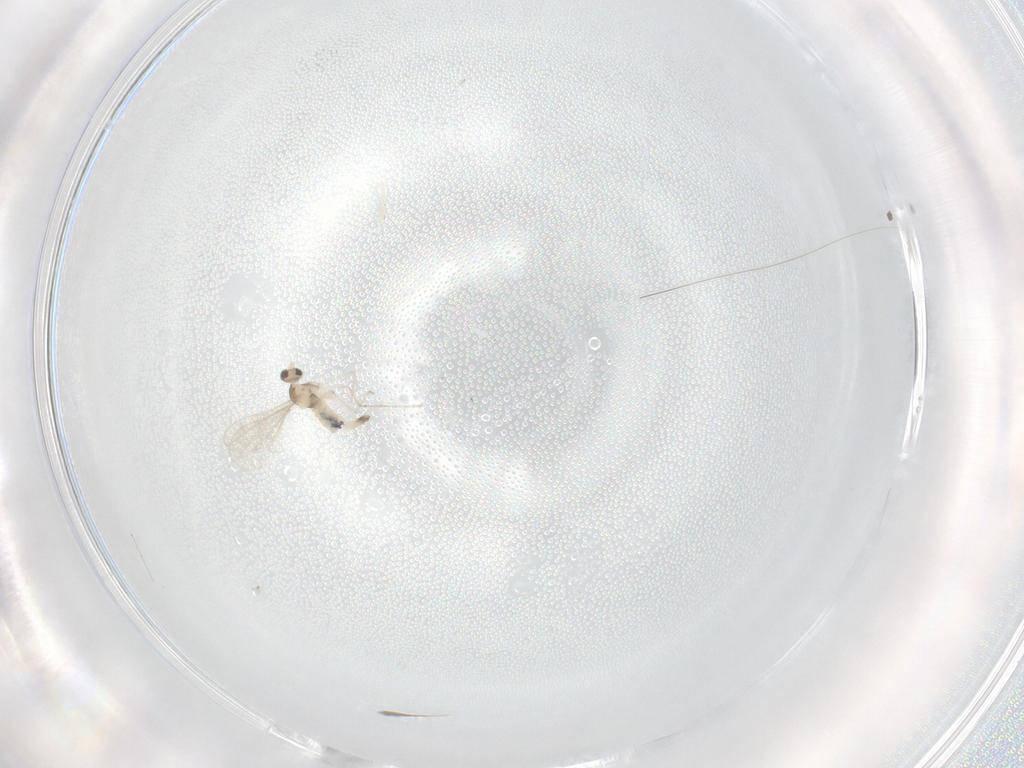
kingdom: Animalia
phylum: Arthropoda
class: Insecta
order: Diptera
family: Cecidomyiidae
